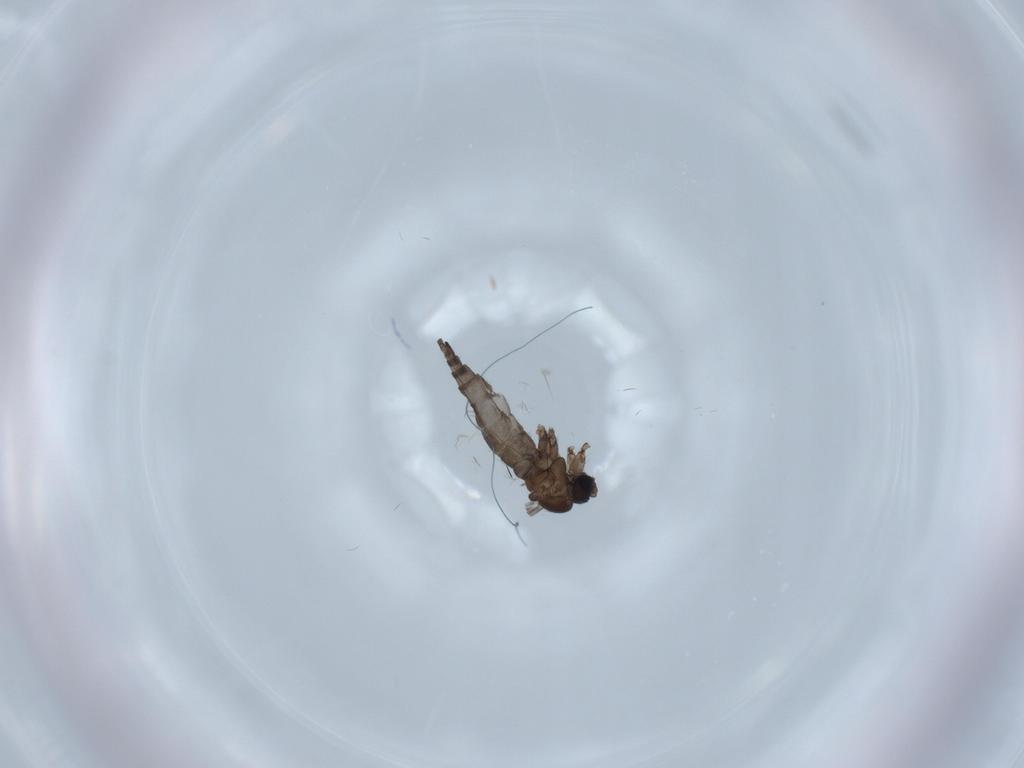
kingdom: Animalia
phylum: Arthropoda
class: Insecta
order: Diptera
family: Sciaridae
